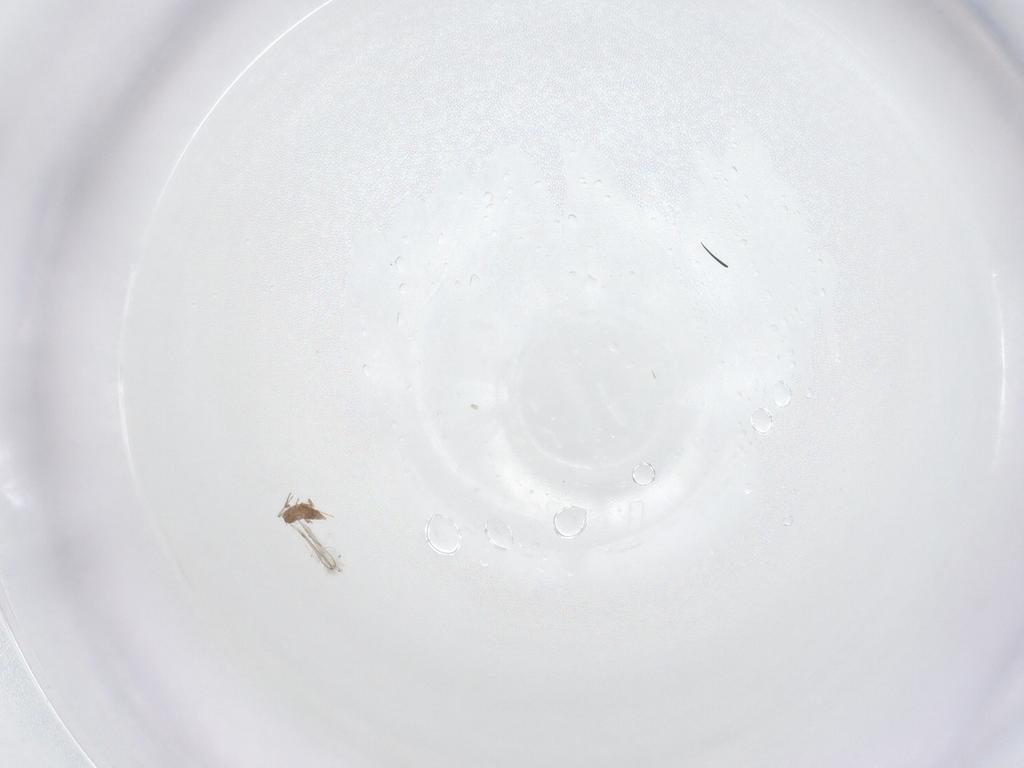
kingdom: Animalia
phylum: Arthropoda
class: Insecta
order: Hymenoptera
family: Mymaridae
